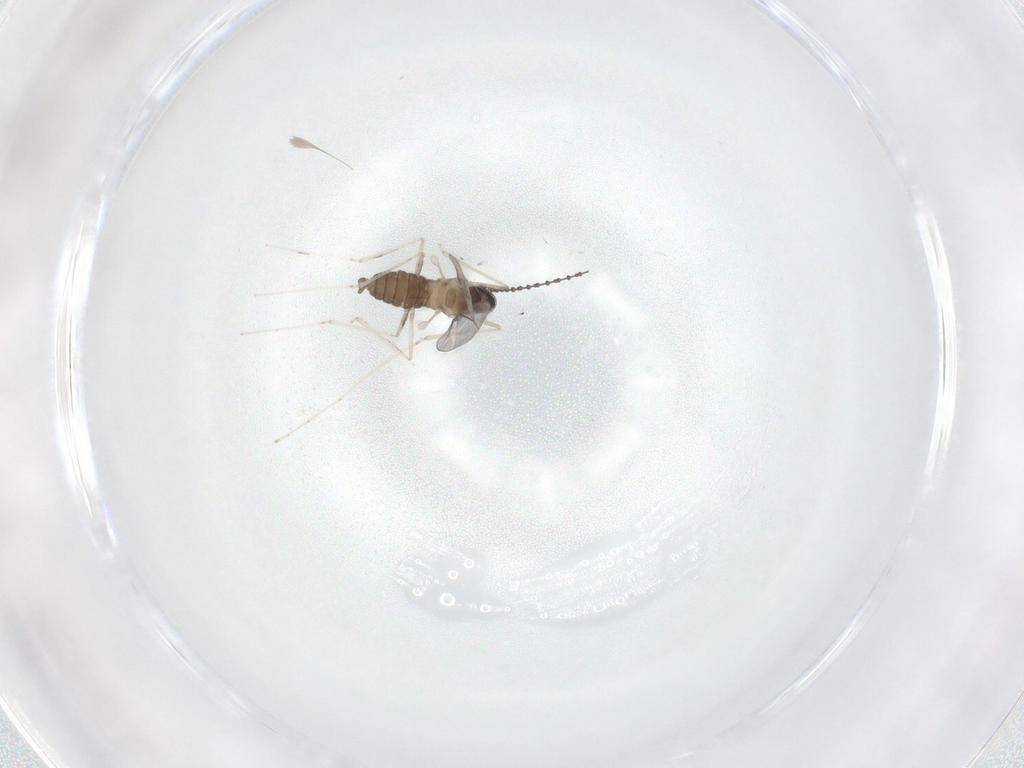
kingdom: Animalia
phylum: Arthropoda
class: Insecta
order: Diptera
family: Cecidomyiidae
